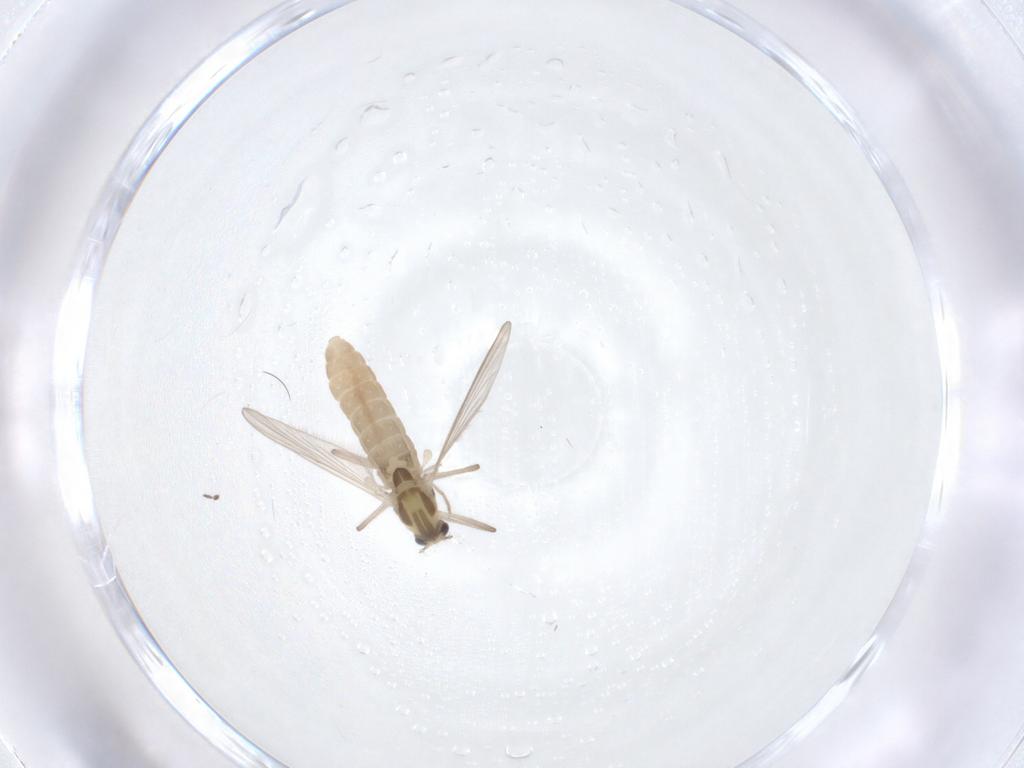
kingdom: Animalia
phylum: Arthropoda
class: Insecta
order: Diptera
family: Chironomidae
